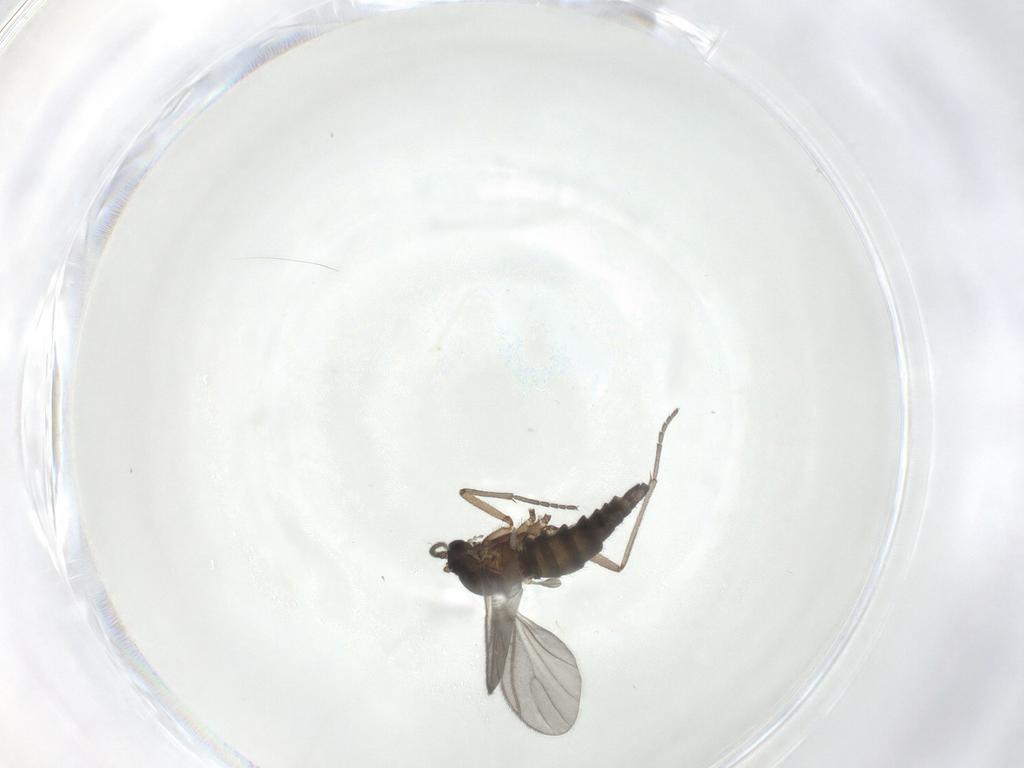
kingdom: Animalia
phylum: Arthropoda
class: Insecta
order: Diptera
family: Sciaridae
